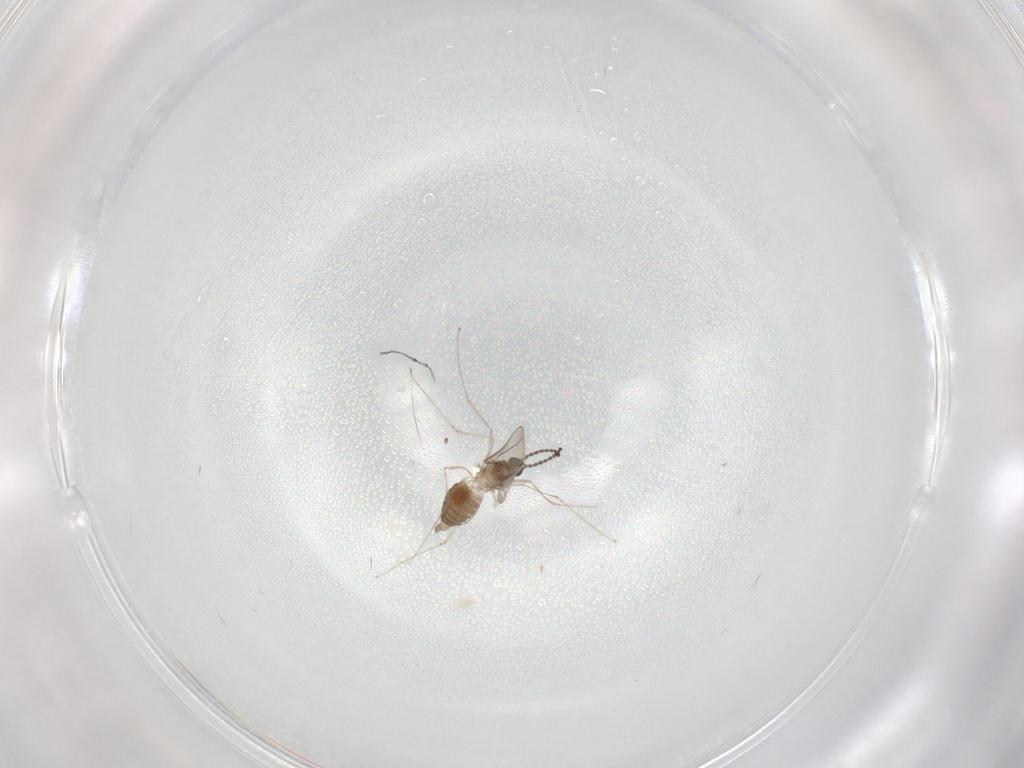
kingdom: Animalia
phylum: Arthropoda
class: Insecta
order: Diptera
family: Cecidomyiidae
